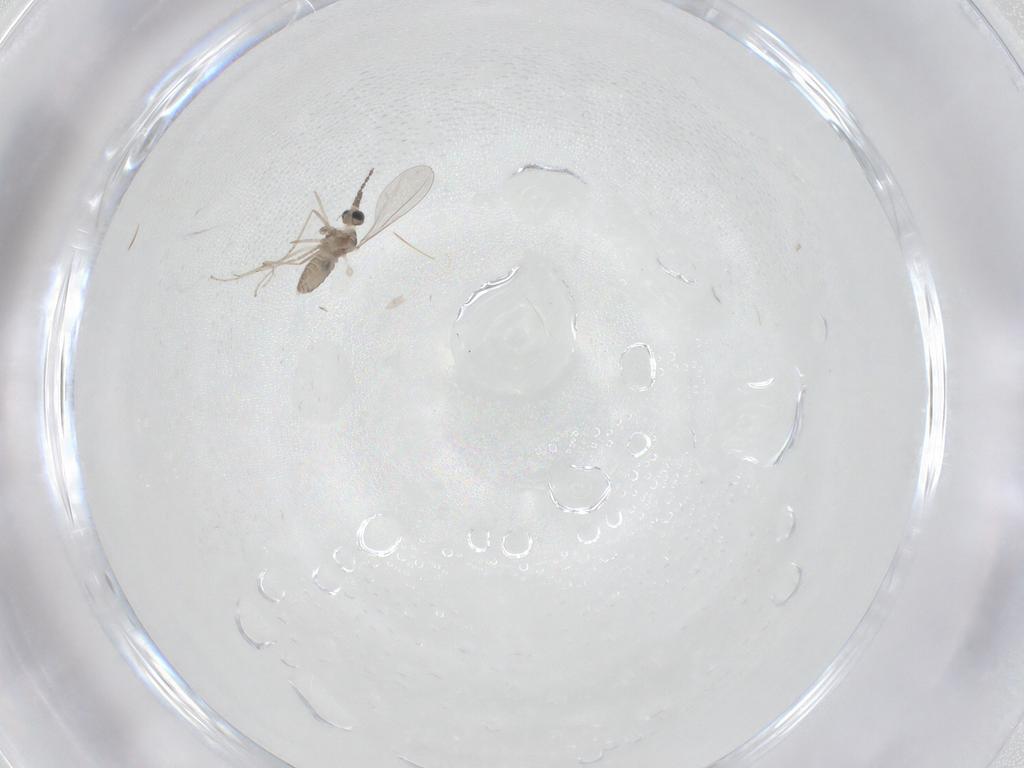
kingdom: Animalia
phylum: Arthropoda
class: Insecta
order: Diptera
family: Sciaridae
